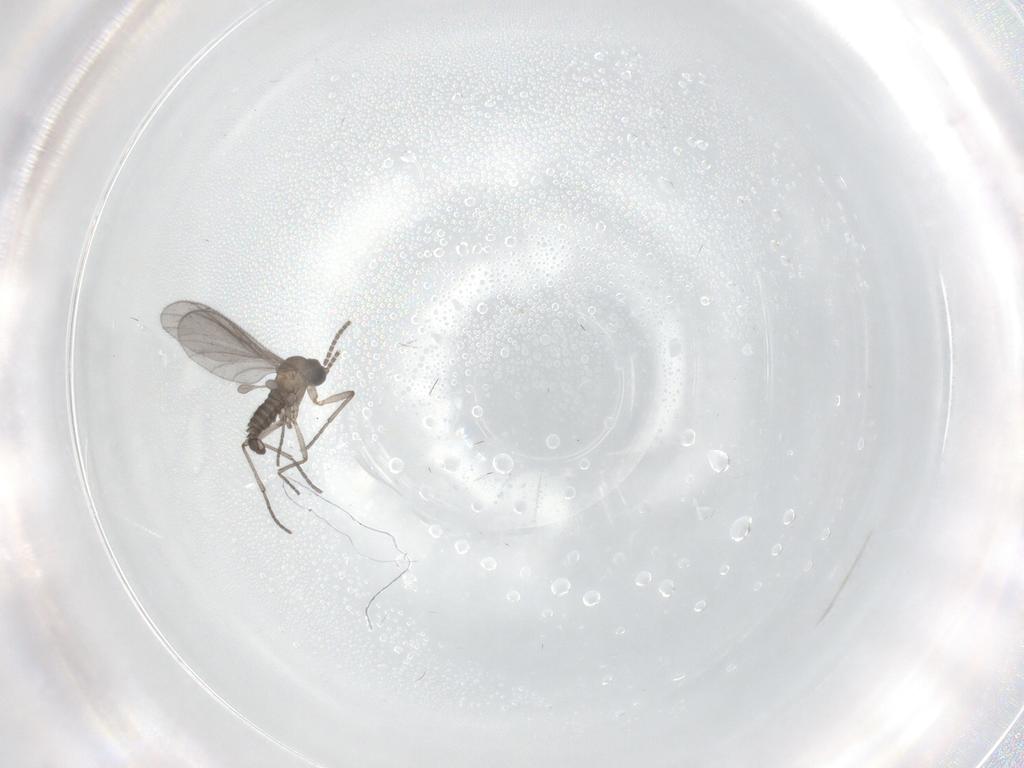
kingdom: Animalia
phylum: Arthropoda
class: Insecta
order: Diptera
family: Sciaridae
